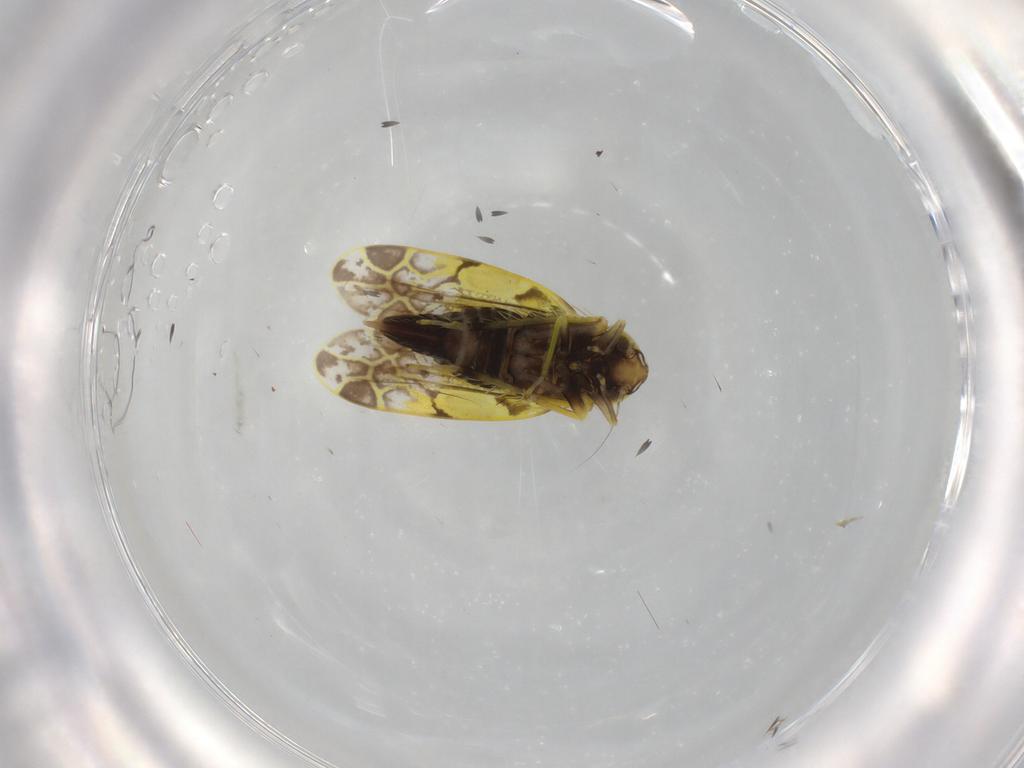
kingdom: Animalia
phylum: Arthropoda
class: Insecta
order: Hemiptera
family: Cicadellidae
